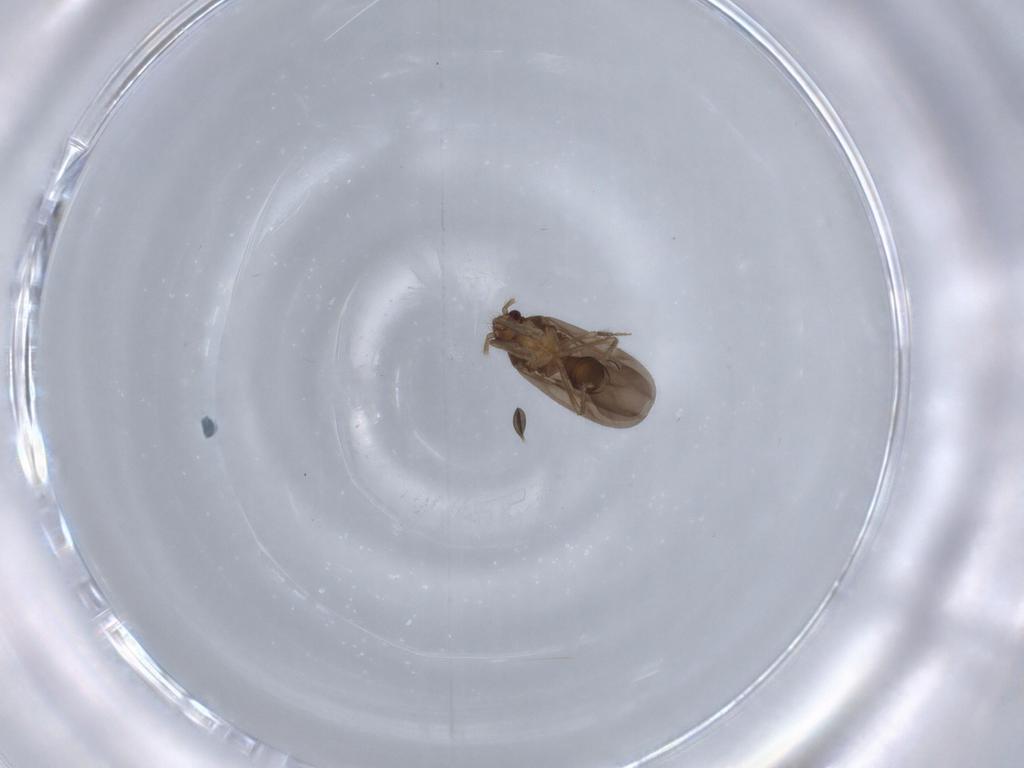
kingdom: Animalia
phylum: Arthropoda
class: Insecta
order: Hemiptera
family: Ceratocombidae
